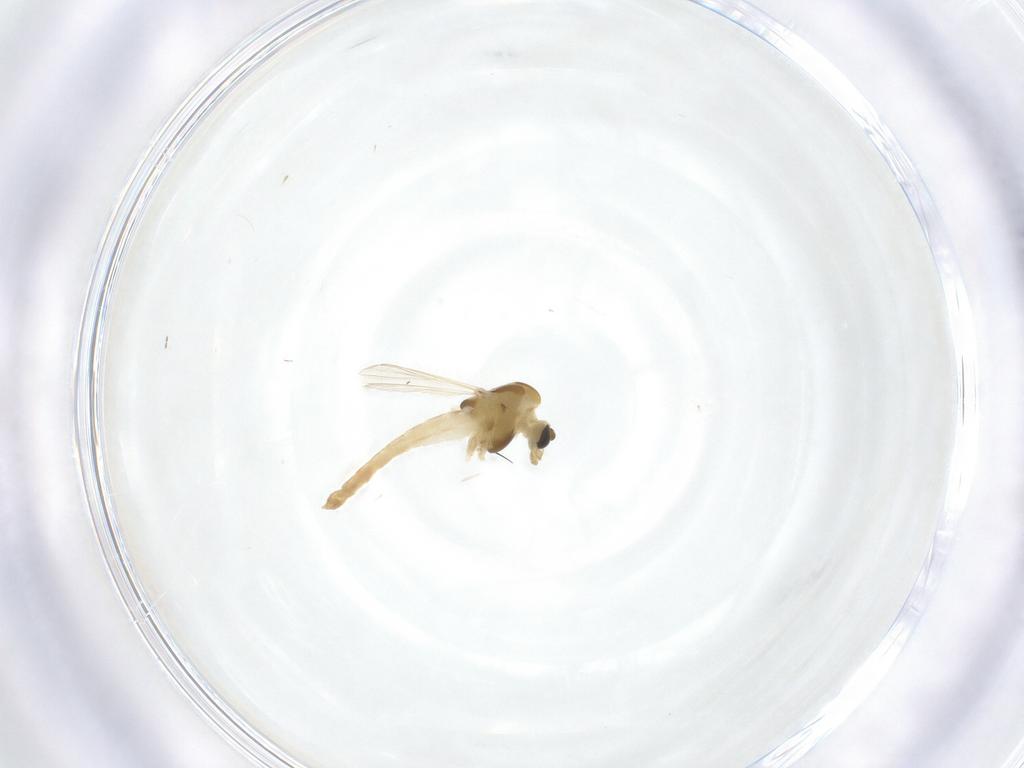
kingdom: Animalia
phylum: Arthropoda
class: Insecta
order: Diptera
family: Chironomidae
